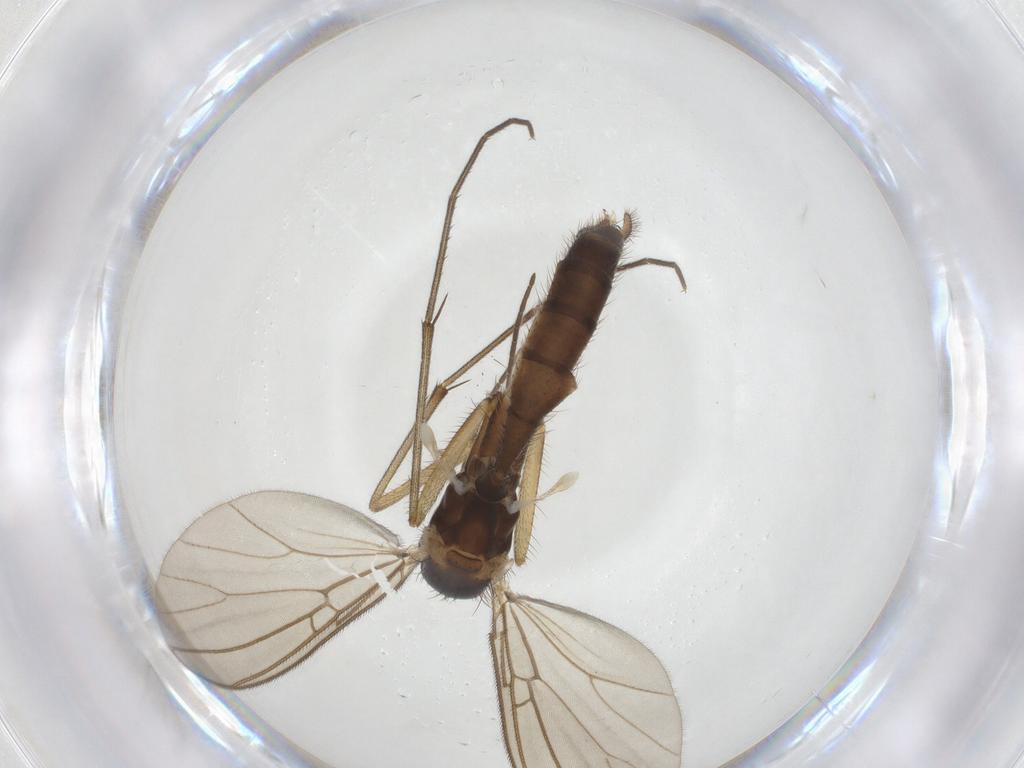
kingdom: Animalia
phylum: Arthropoda
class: Insecta
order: Diptera
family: Mycetophilidae
